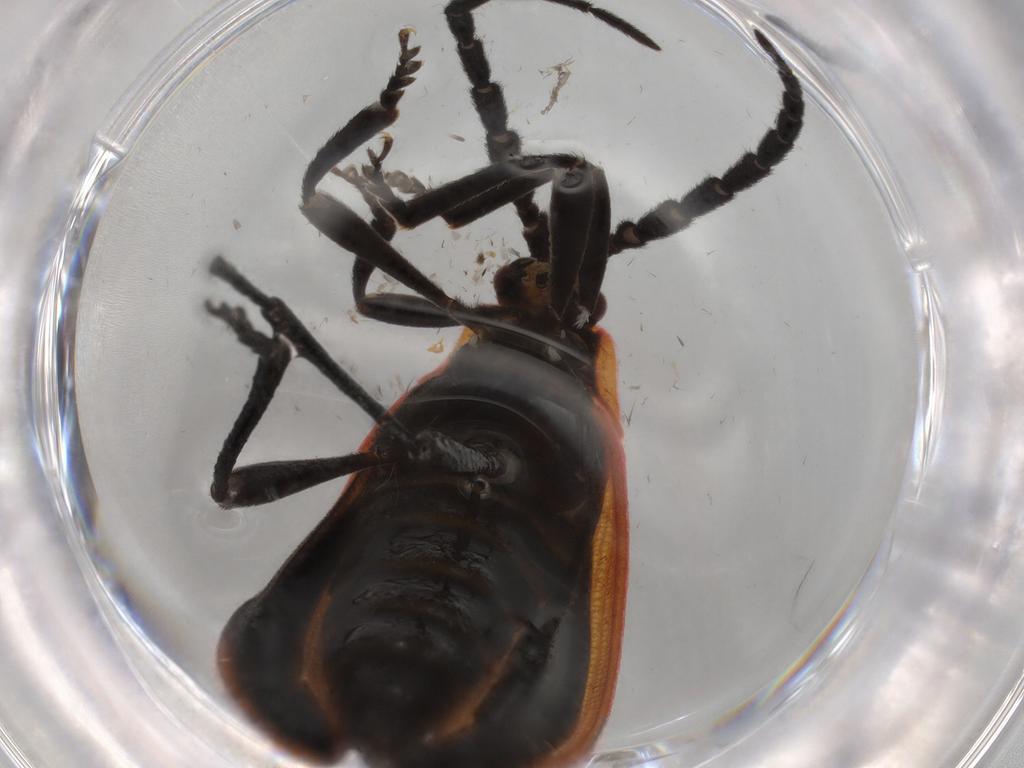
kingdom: Animalia
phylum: Arthropoda
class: Insecta
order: Coleoptera
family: Lycidae
